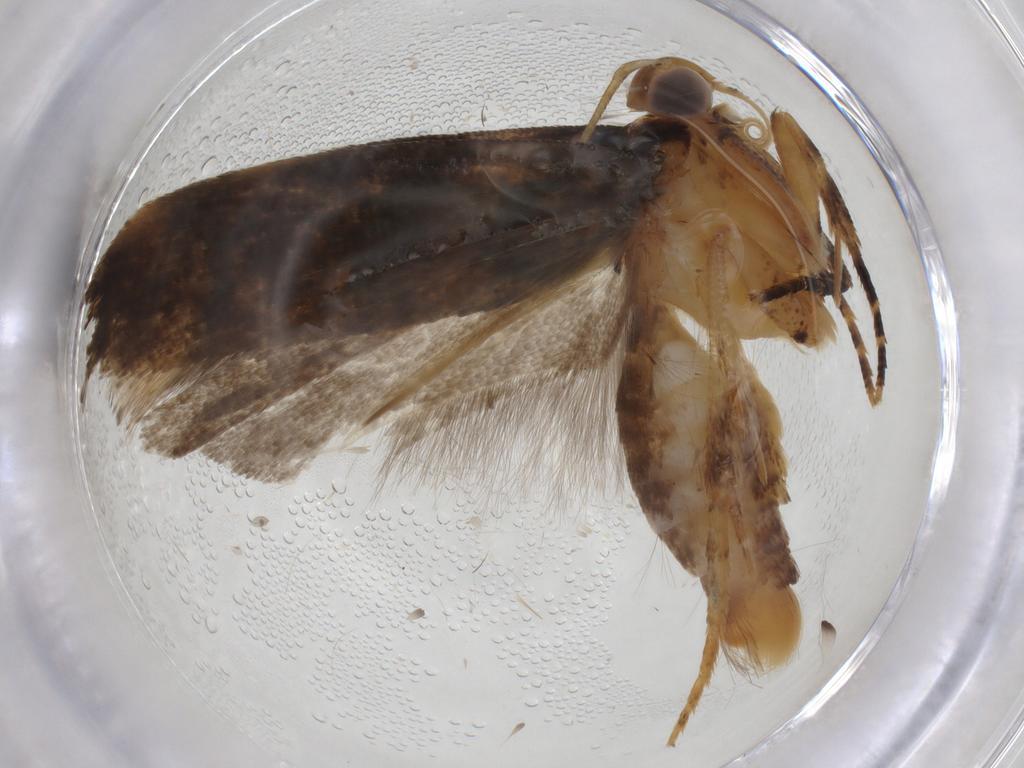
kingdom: Animalia
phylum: Arthropoda
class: Insecta
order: Lepidoptera
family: Gelechiidae
